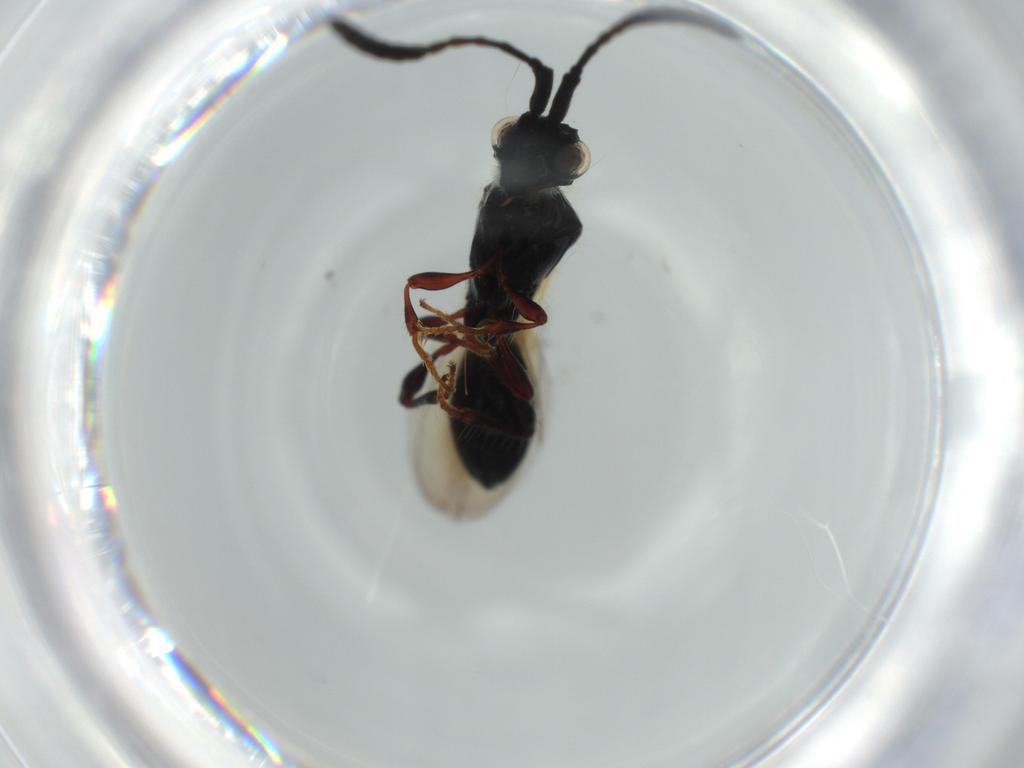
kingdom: Animalia
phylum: Arthropoda
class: Insecta
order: Hymenoptera
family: Diapriidae
